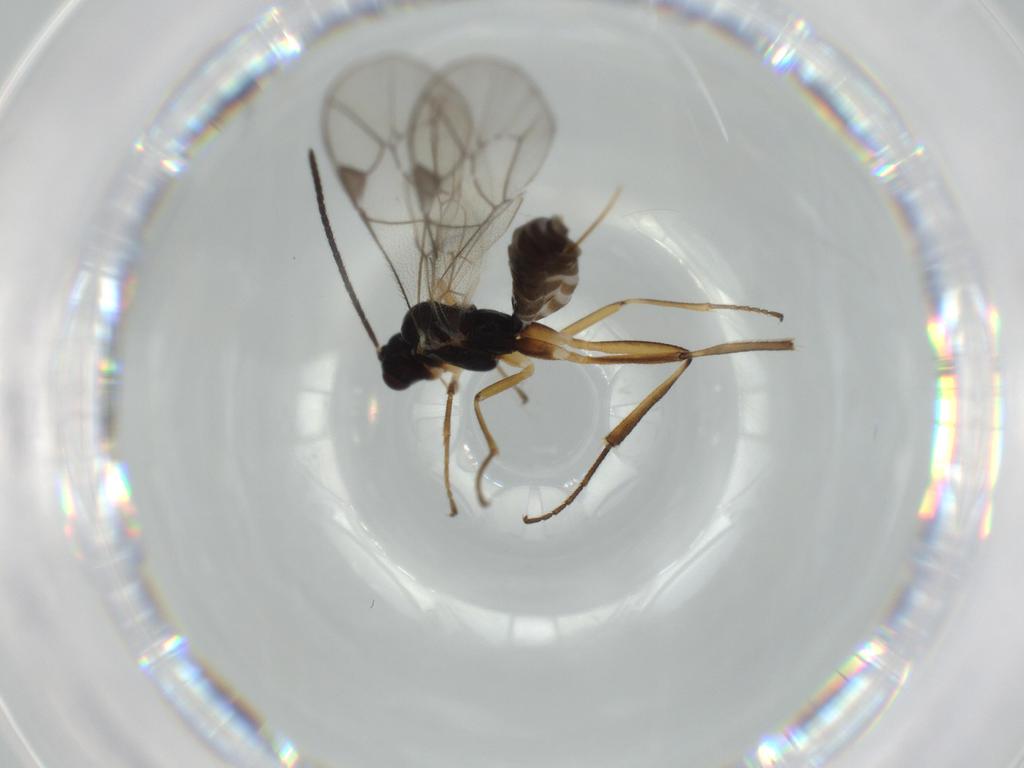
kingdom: Animalia
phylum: Arthropoda
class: Insecta
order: Hymenoptera
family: Ichneumonidae
